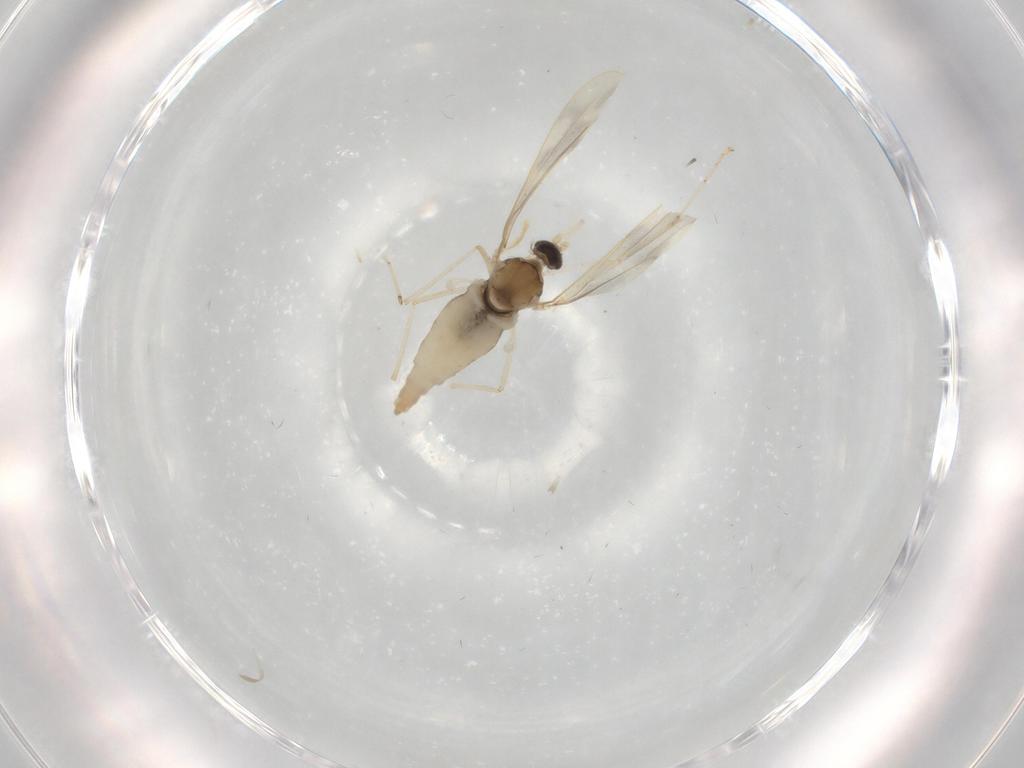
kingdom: Animalia
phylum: Arthropoda
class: Insecta
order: Diptera
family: Cecidomyiidae
